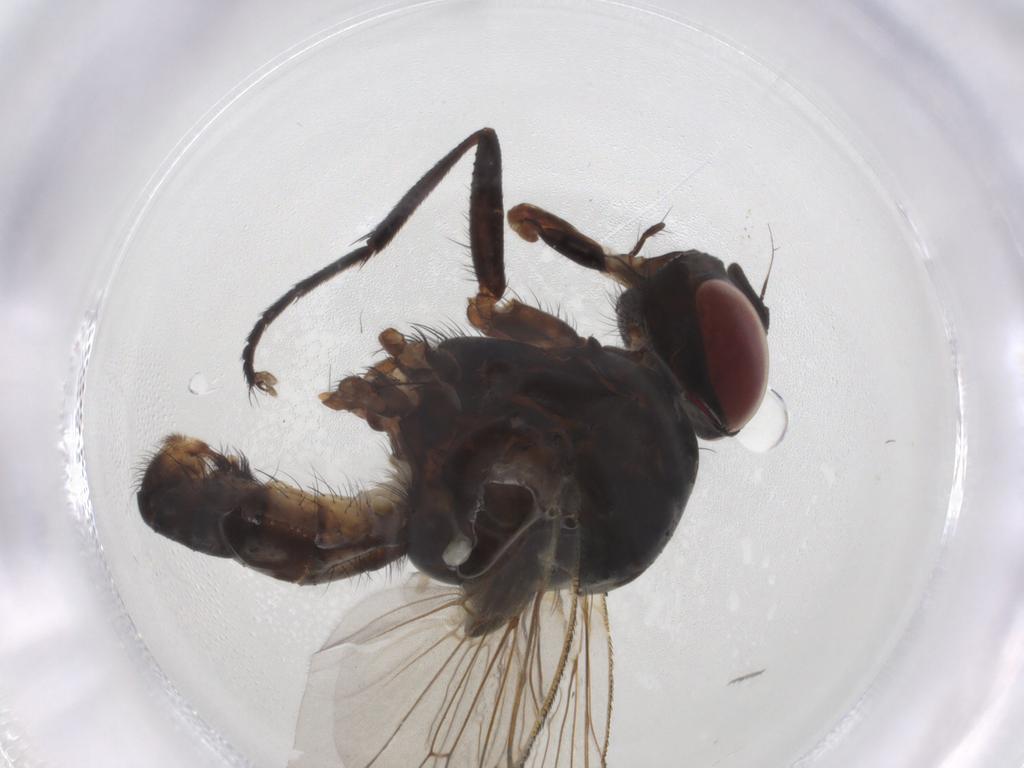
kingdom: Animalia
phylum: Arthropoda
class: Insecta
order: Diptera
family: Anthomyiidae
